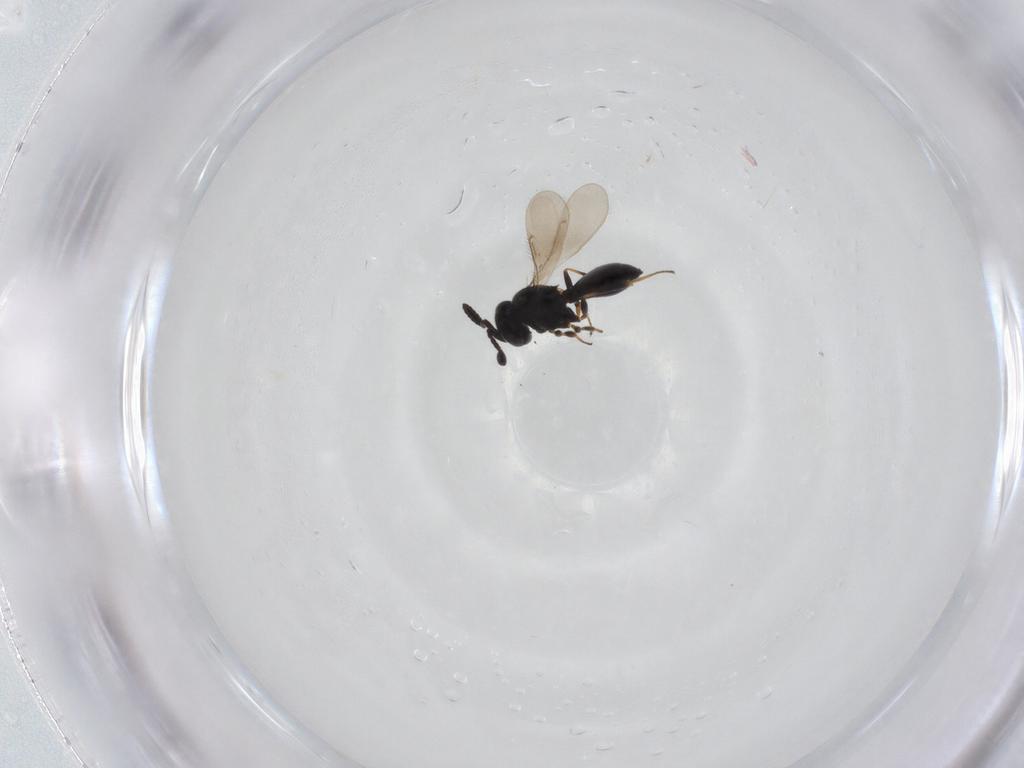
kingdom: Animalia
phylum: Arthropoda
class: Insecta
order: Hymenoptera
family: Scelionidae
